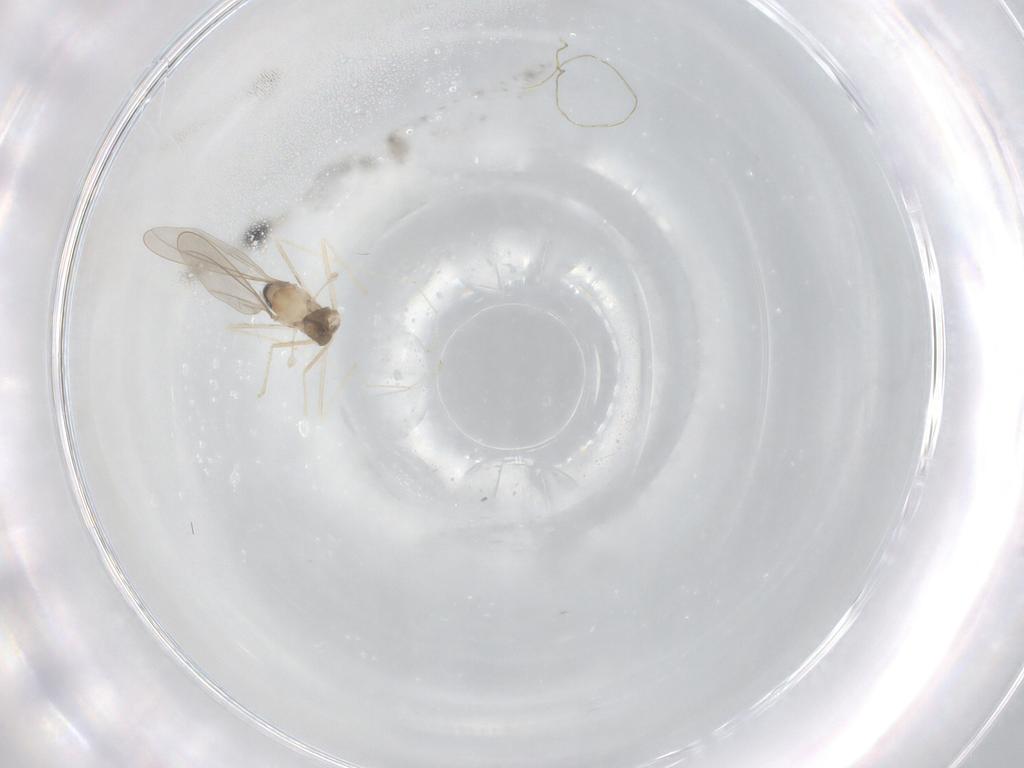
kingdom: Animalia
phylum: Arthropoda
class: Insecta
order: Diptera
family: Cecidomyiidae
